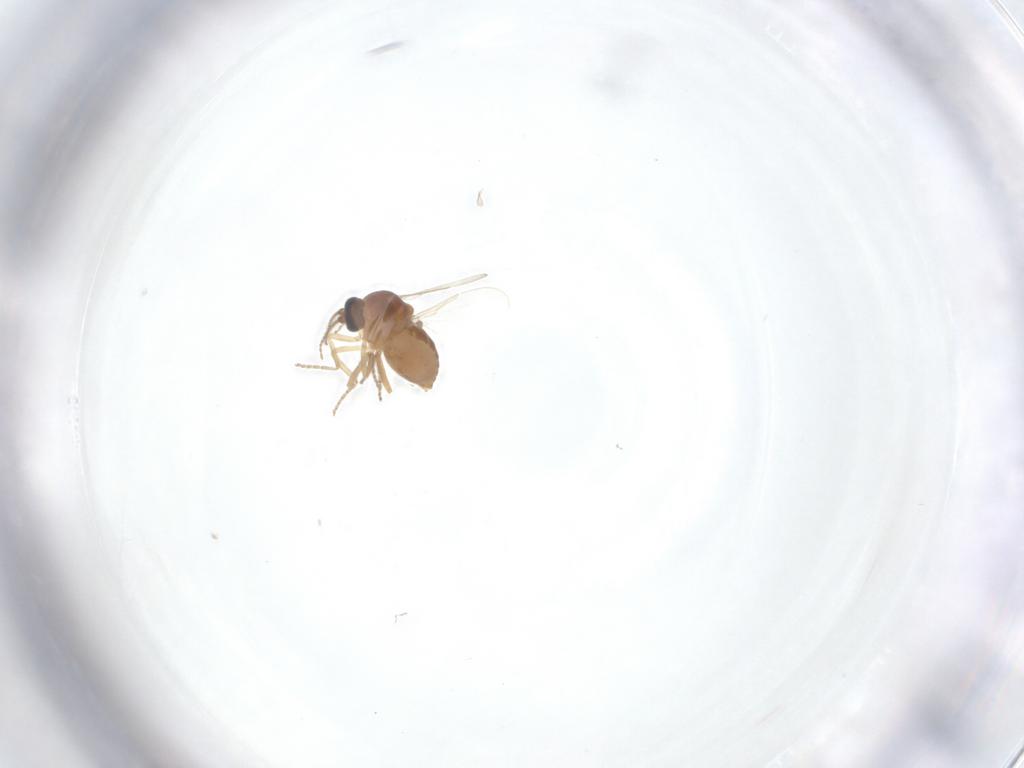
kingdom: Animalia
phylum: Arthropoda
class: Insecta
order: Diptera
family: Ceratopogonidae
